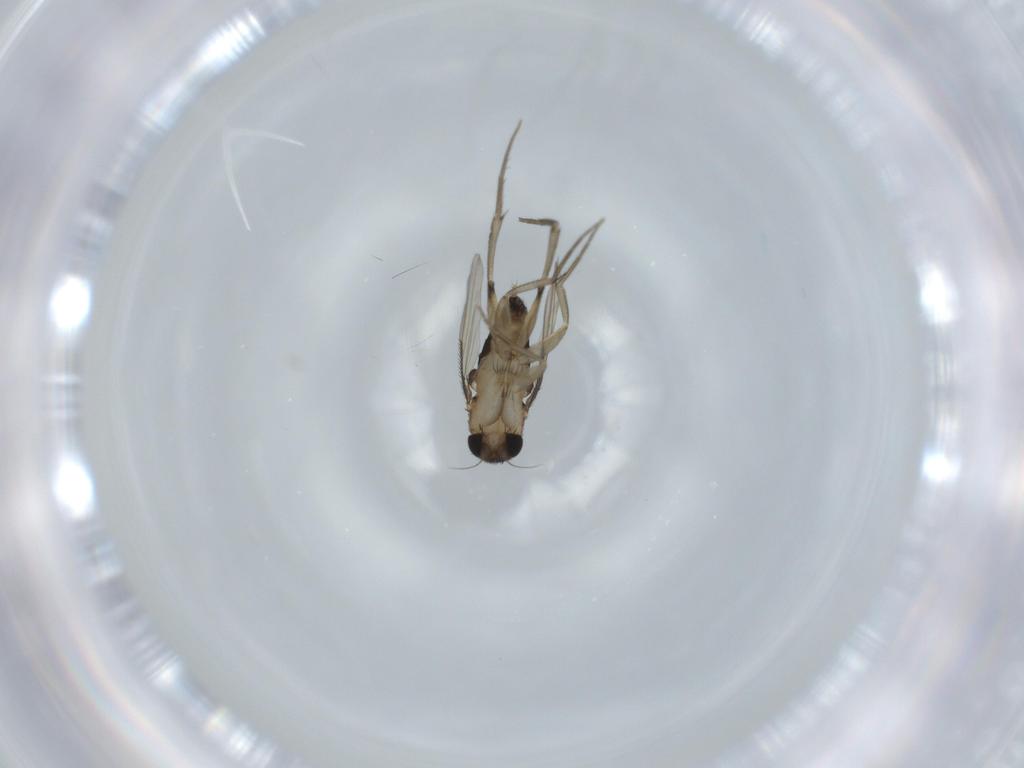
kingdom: Animalia
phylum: Arthropoda
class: Insecta
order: Diptera
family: Phoridae
